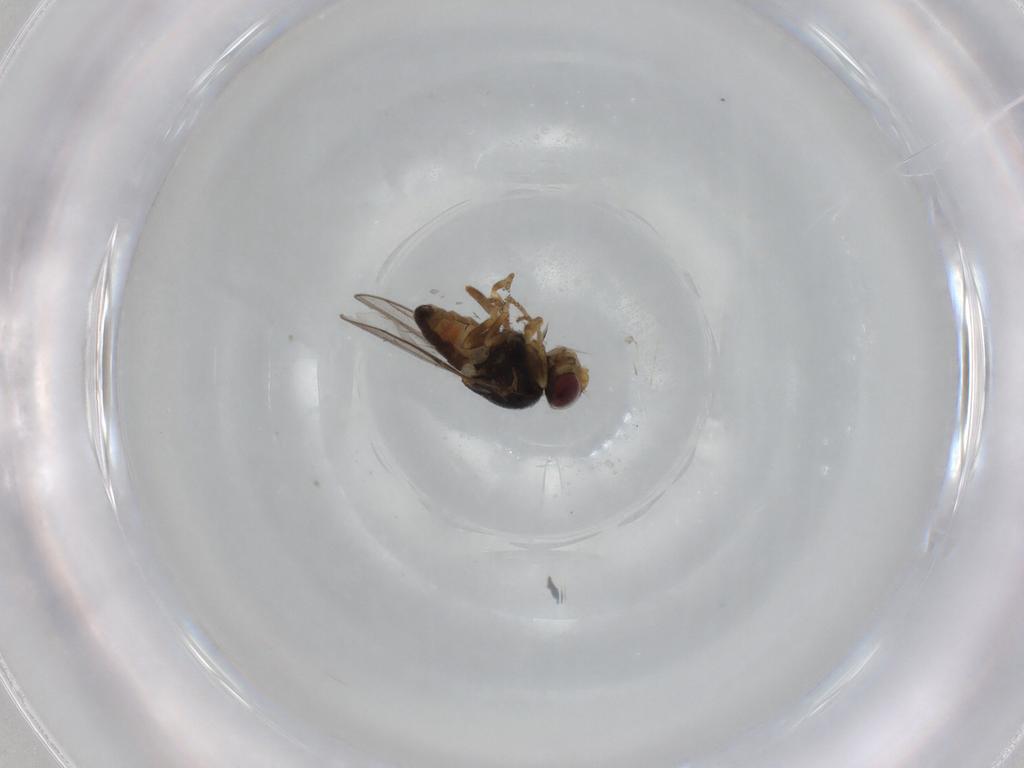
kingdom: Animalia
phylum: Arthropoda
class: Insecta
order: Diptera
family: Chloropidae
